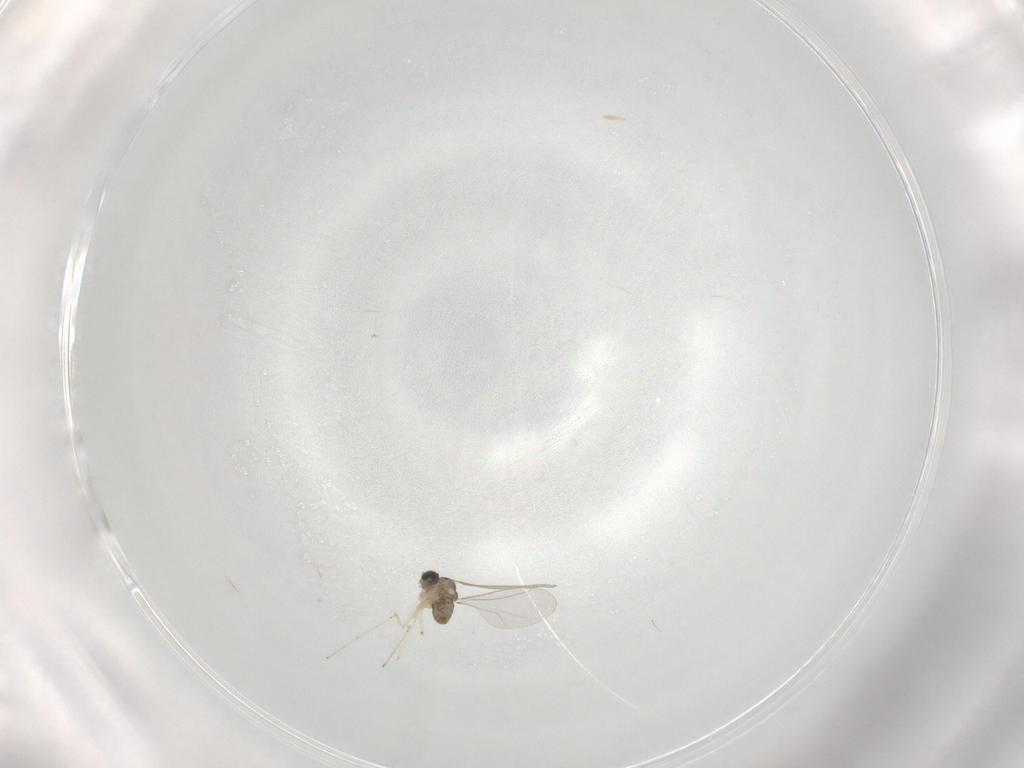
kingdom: Animalia
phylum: Arthropoda
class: Insecta
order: Diptera
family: Cecidomyiidae
